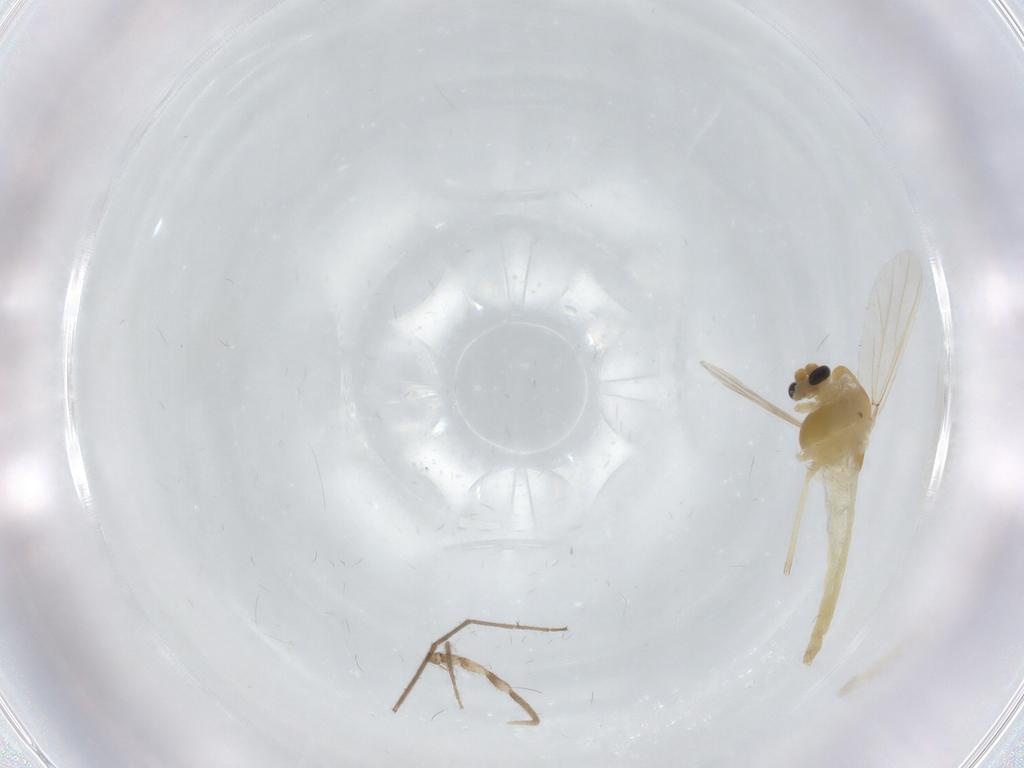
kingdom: Animalia
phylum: Arthropoda
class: Insecta
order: Diptera
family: Chironomidae
